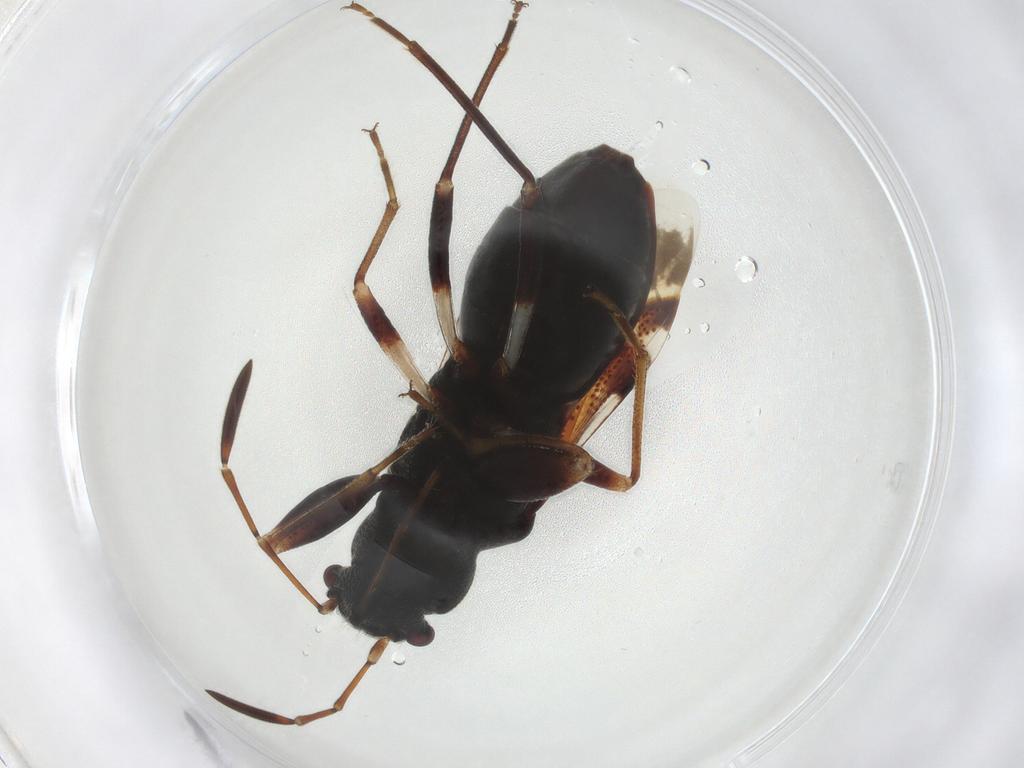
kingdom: Animalia
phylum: Arthropoda
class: Insecta
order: Hemiptera
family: Rhyparochromidae
